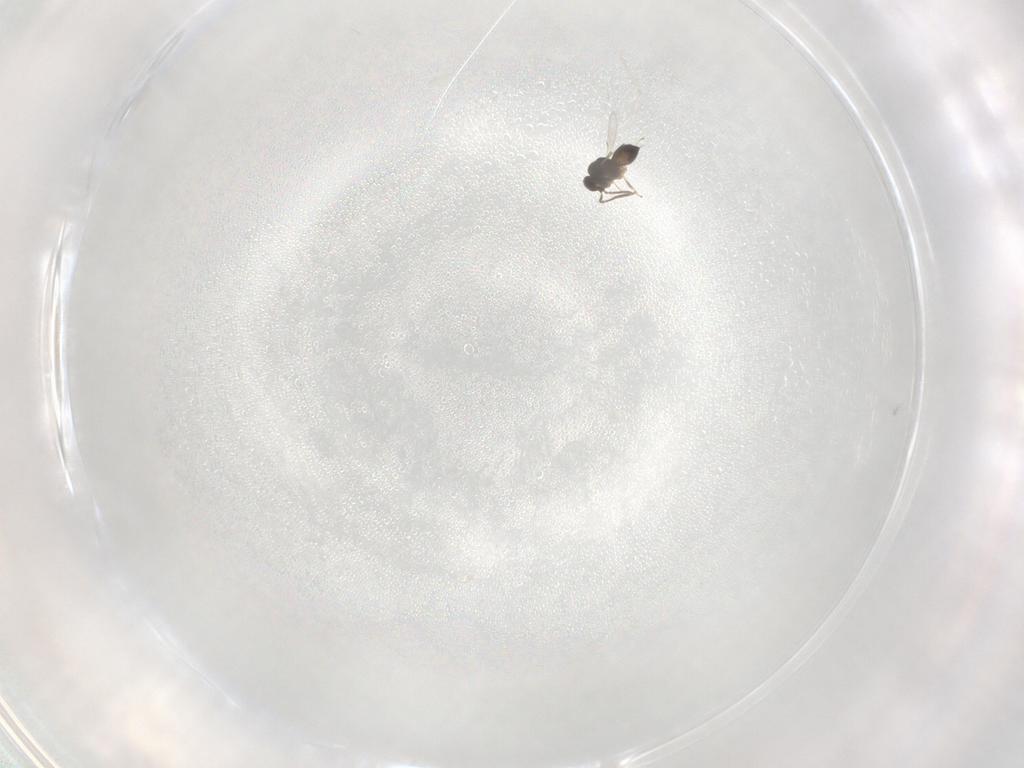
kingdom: Animalia
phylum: Arthropoda
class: Insecta
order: Hymenoptera
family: Scelionidae
